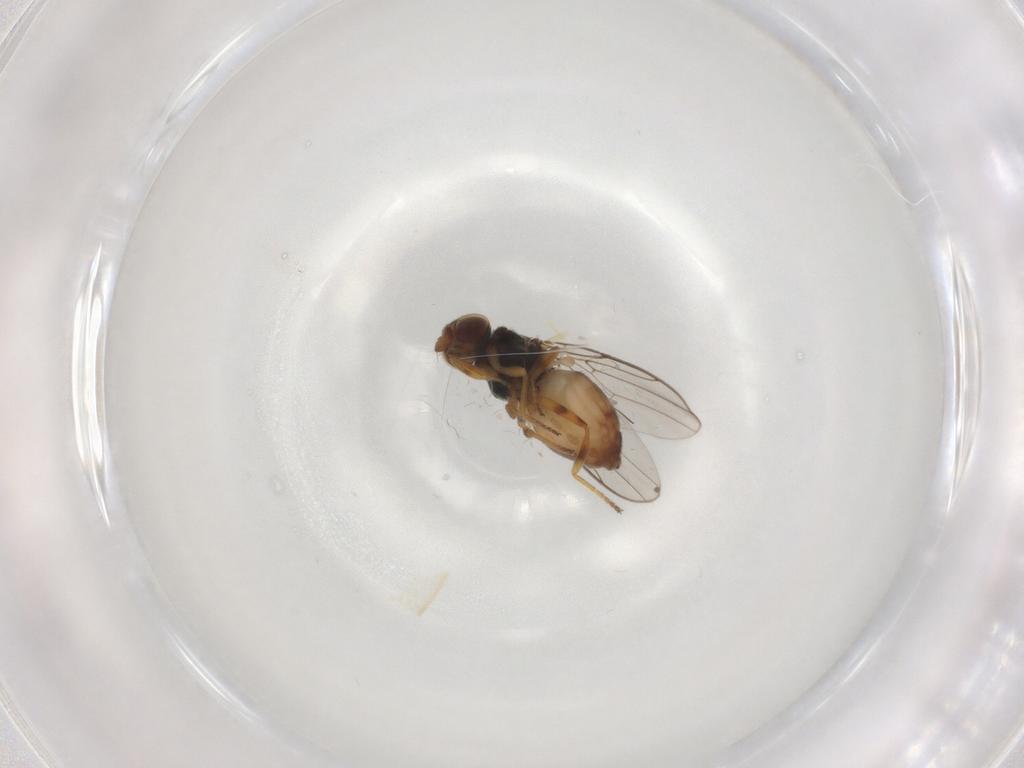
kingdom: Animalia
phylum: Arthropoda
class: Insecta
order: Diptera
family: Chloropidae
